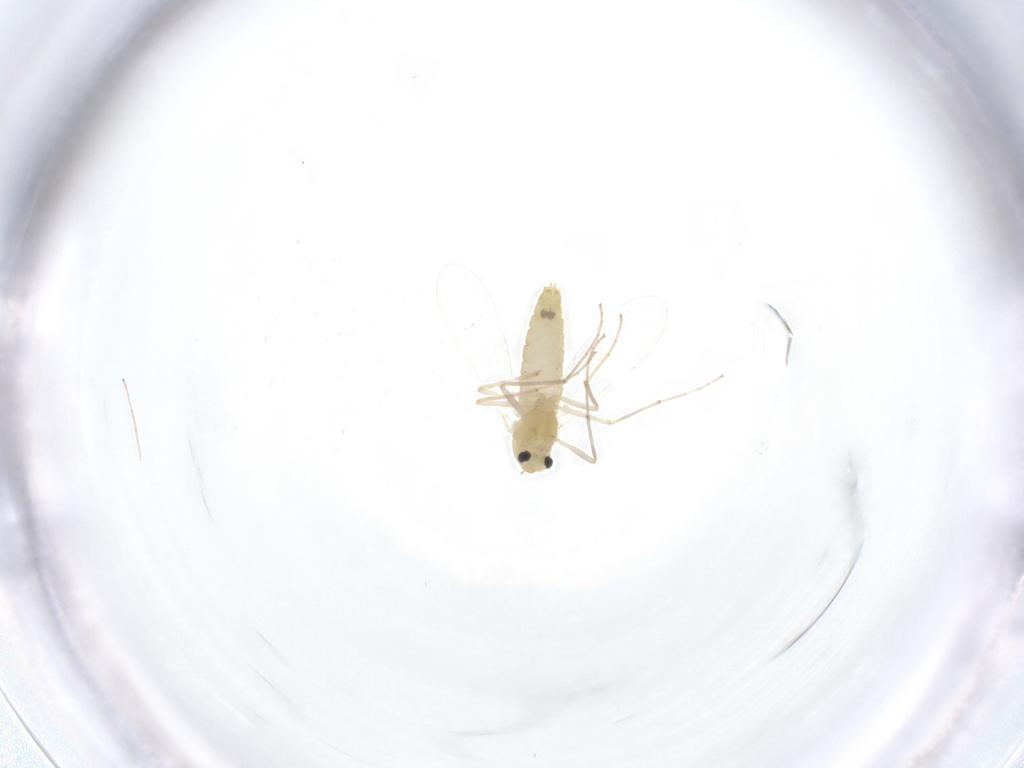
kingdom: Animalia
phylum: Arthropoda
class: Insecta
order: Diptera
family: Chironomidae
